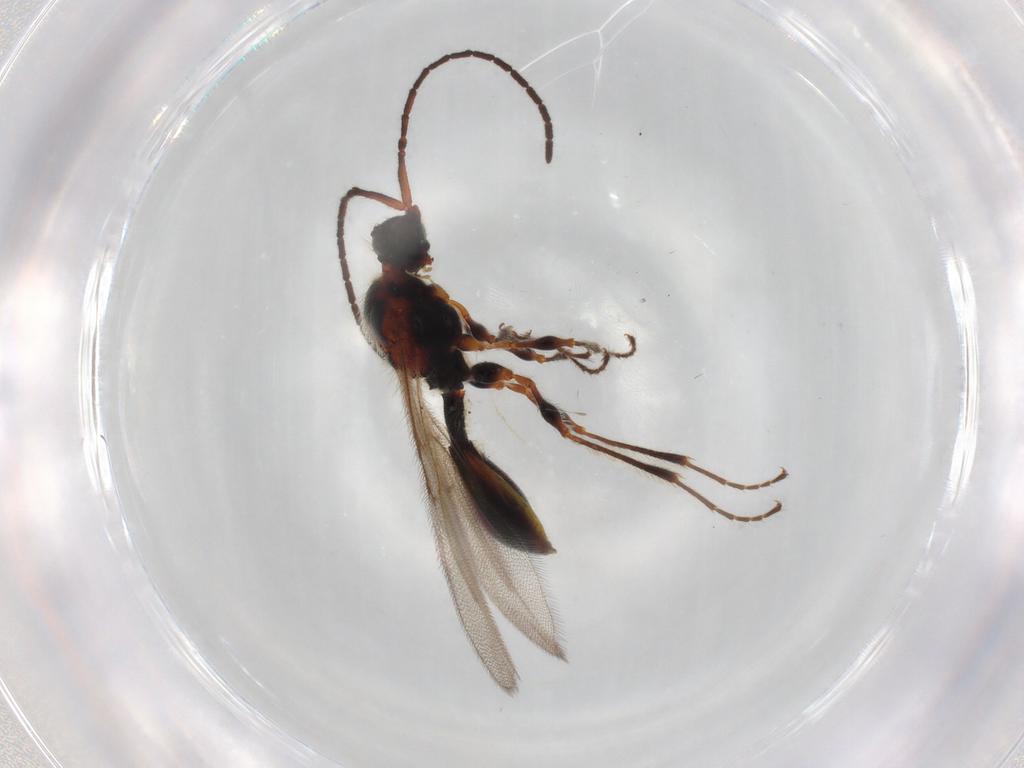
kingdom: Animalia
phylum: Arthropoda
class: Insecta
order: Hymenoptera
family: Diapriidae
